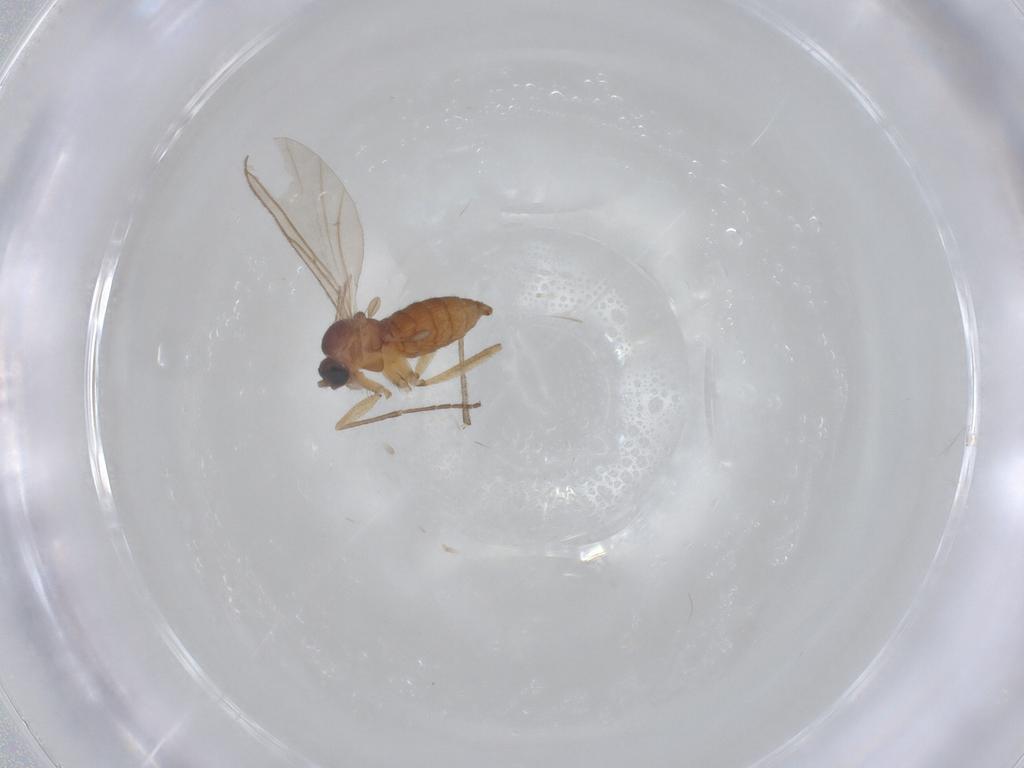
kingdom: Animalia
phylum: Arthropoda
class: Insecta
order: Diptera
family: Sciaridae
